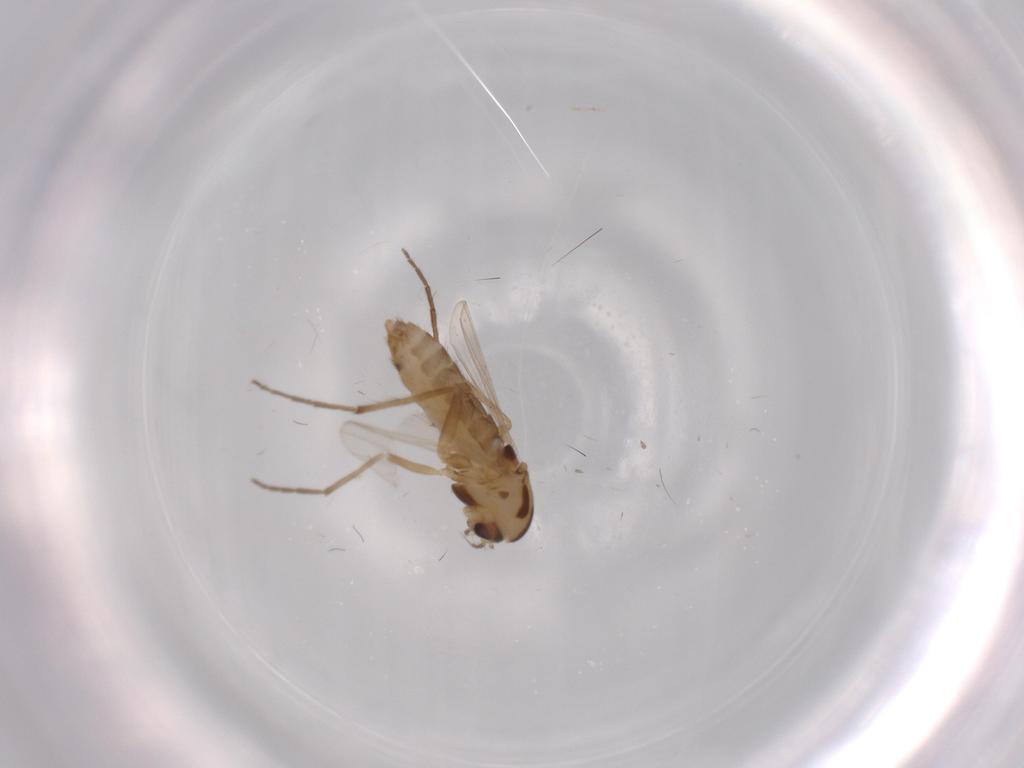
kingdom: Animalia
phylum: Arthropoda
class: Insecta
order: Diptera
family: Chironomidae
